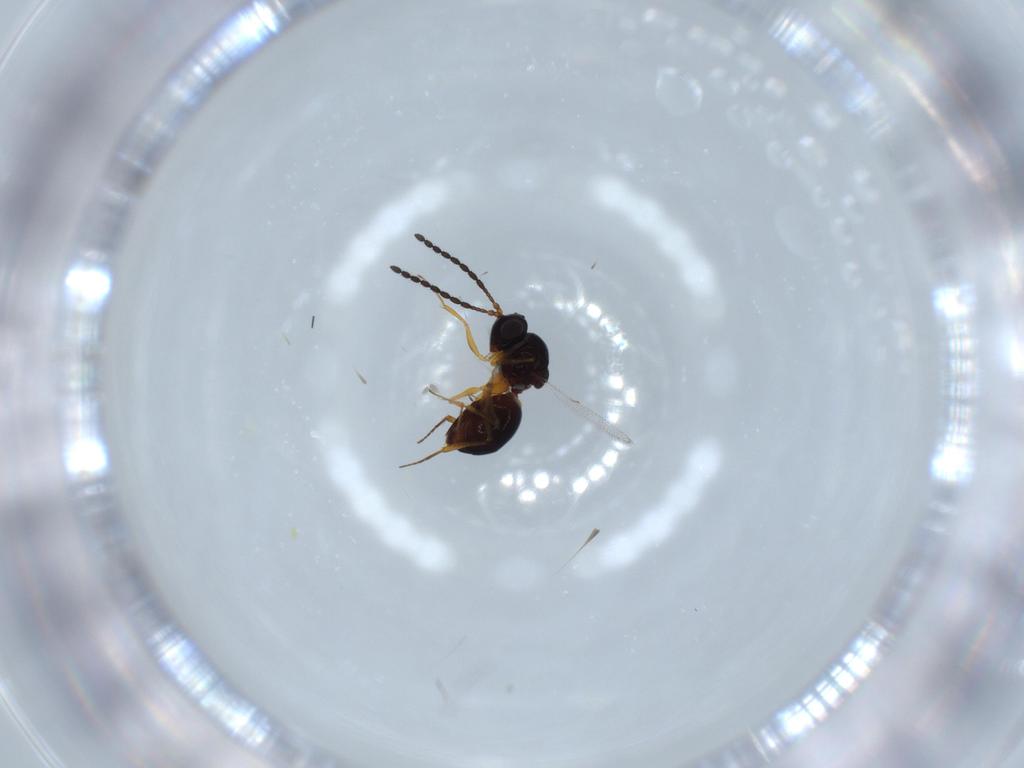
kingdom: Animalia
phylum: Arthropoda
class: Insecta
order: Hymenoptera
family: Figitidae
